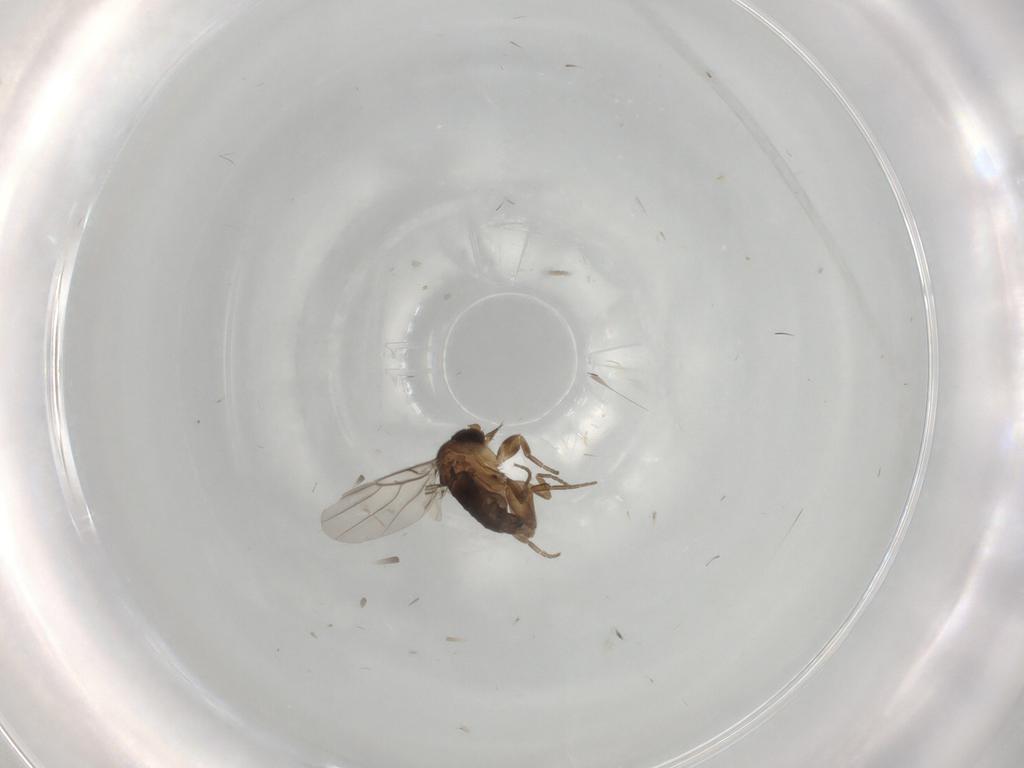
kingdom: Animalia
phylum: Arthropoda
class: Insecta
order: Diptera
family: Phoridae
